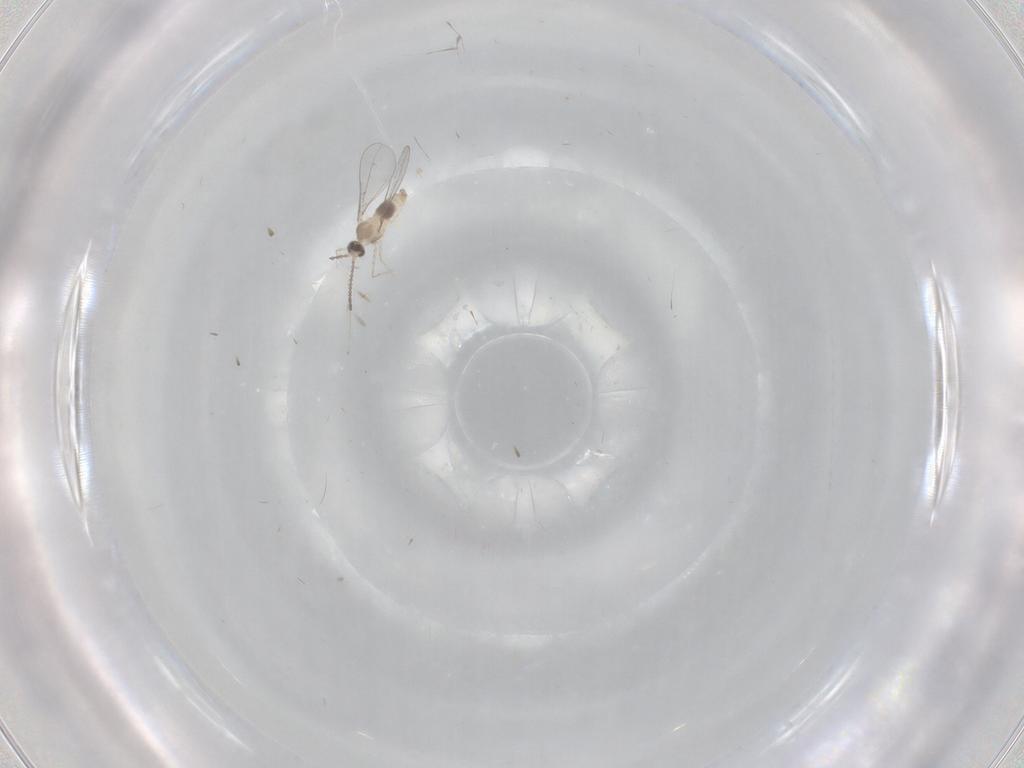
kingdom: Animalia
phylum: Arthropoda
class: Insecta
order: Diptera
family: Cecidomyiidae
